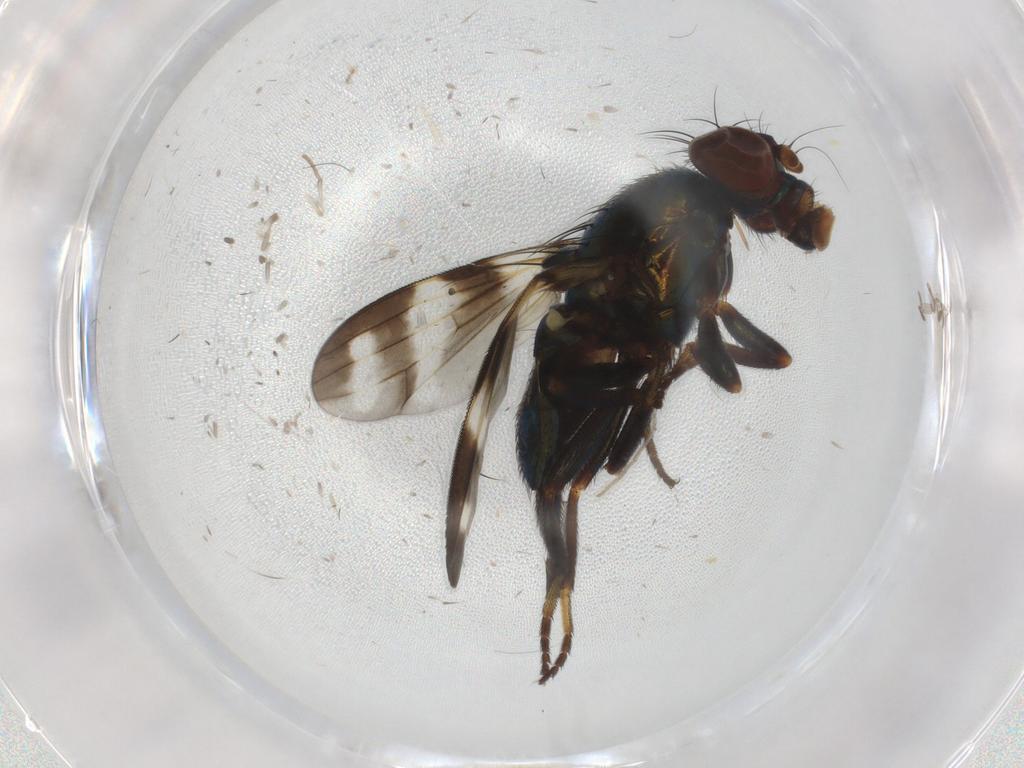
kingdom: Animalia
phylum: Arthropoda
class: Insecta
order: Diptera
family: Ulidiidae
